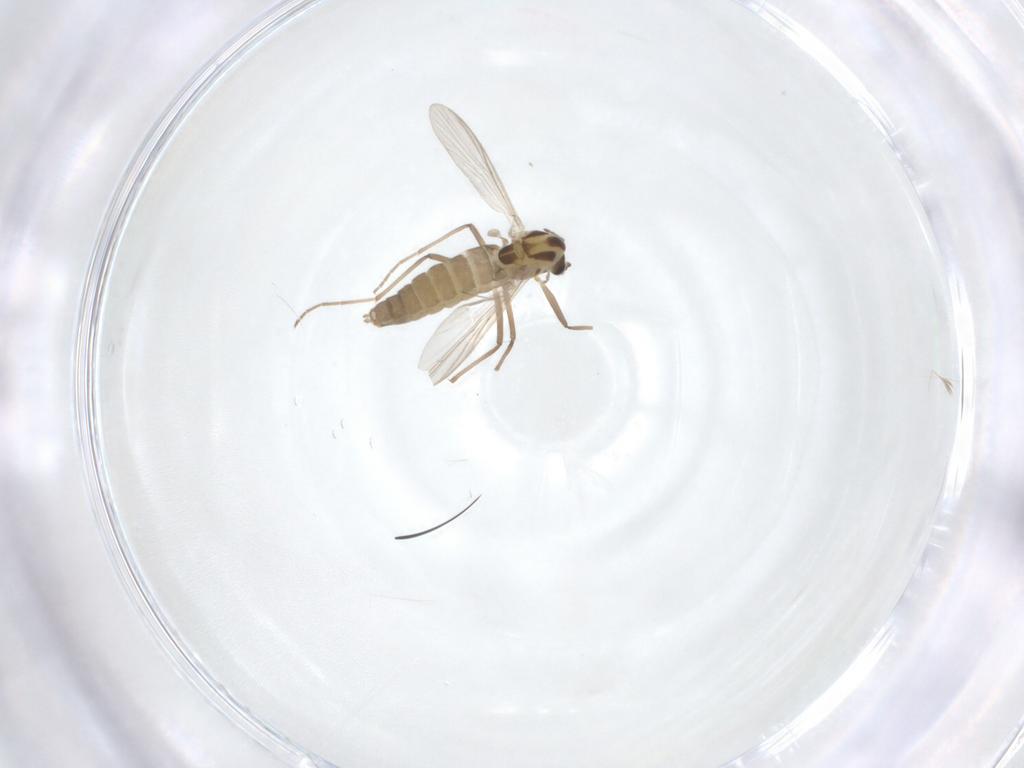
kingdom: Animalia
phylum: Arthropoda
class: Insecta
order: Diptera
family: Chironomidae
